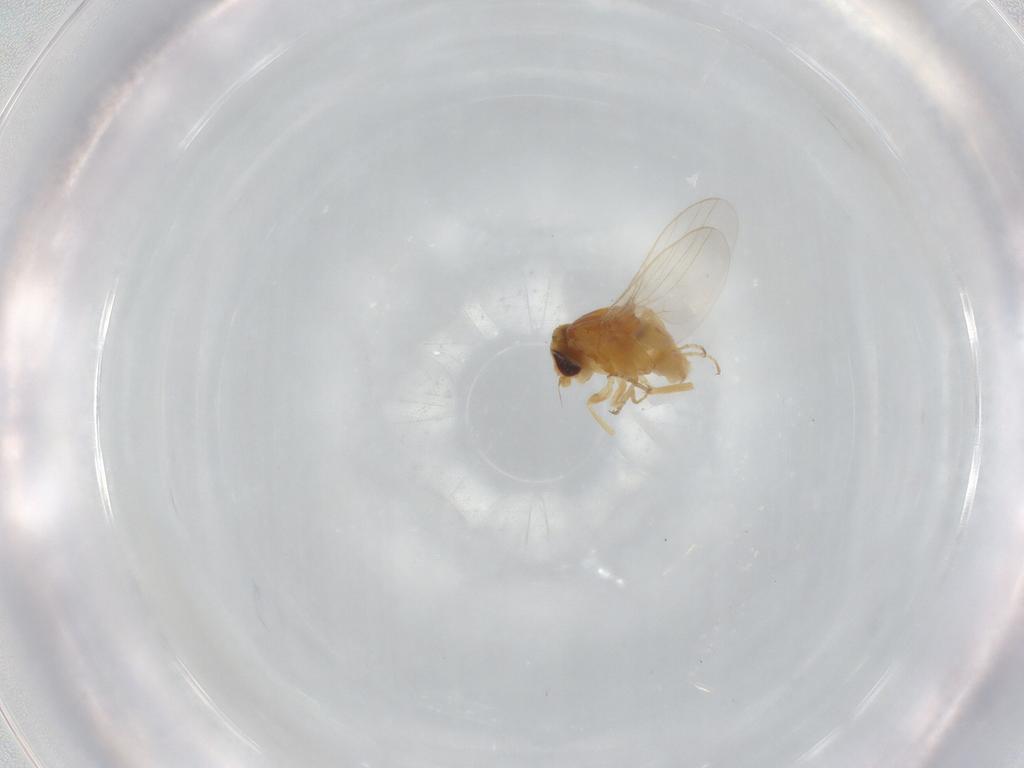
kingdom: Animalia
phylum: Arthropoda
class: Insecta
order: Diptera
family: Cecidomyiidae
